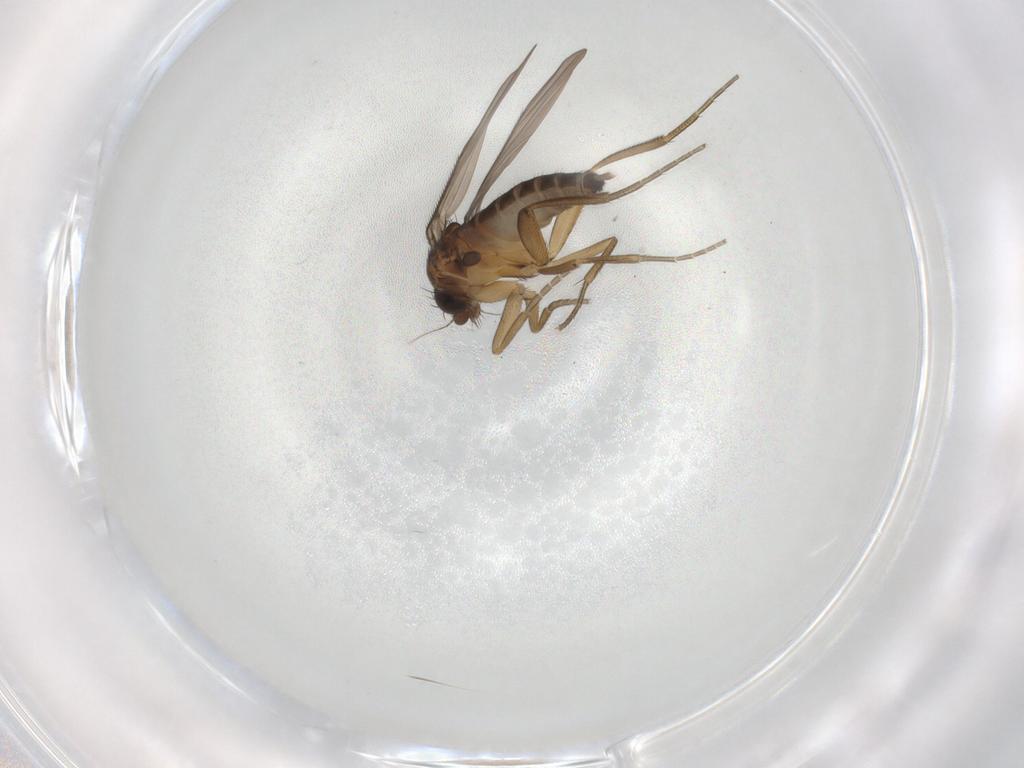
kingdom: Animalia
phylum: Arthropoda
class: Insecta
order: Diptera
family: Phoridae
